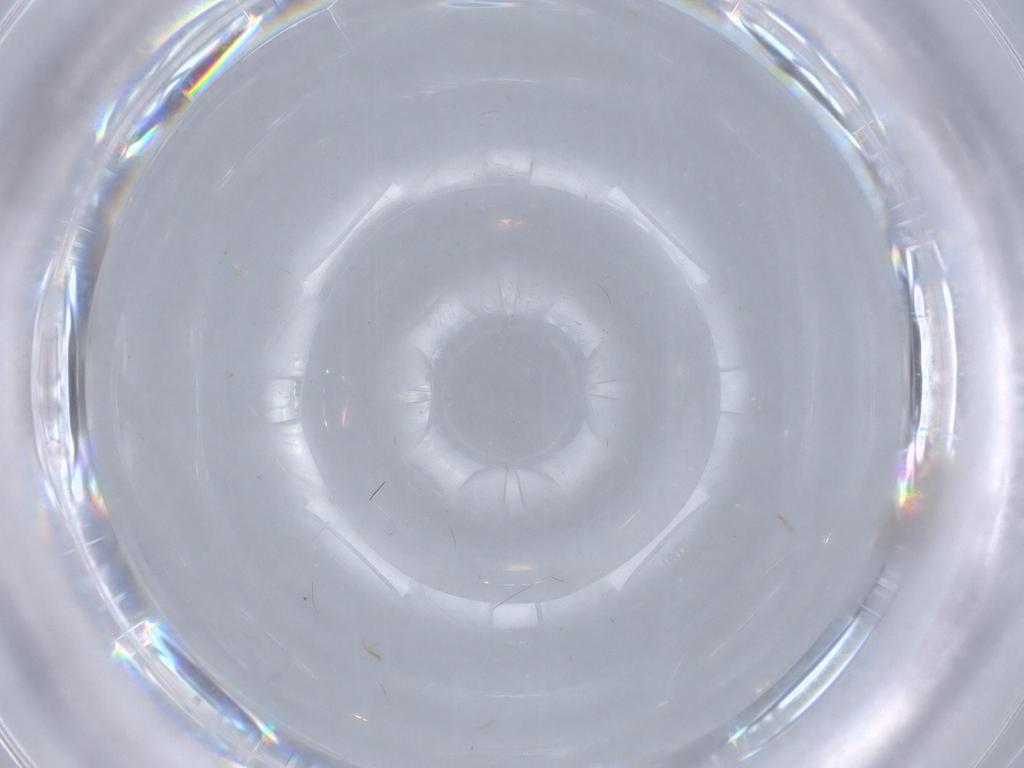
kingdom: Animalia
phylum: Arthropoda
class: Insecta
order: Diptera
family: Cecidomyiidae
